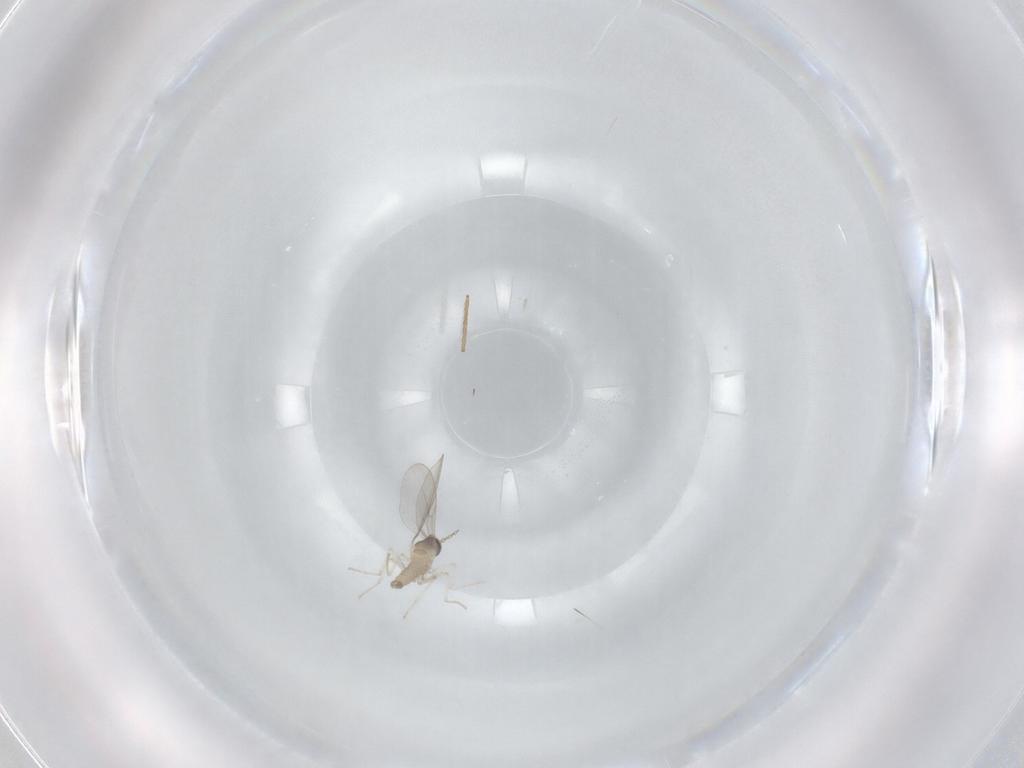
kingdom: Animalia
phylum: Arthropoda
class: Insecta
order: Diptera
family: Cecidomyiidae
